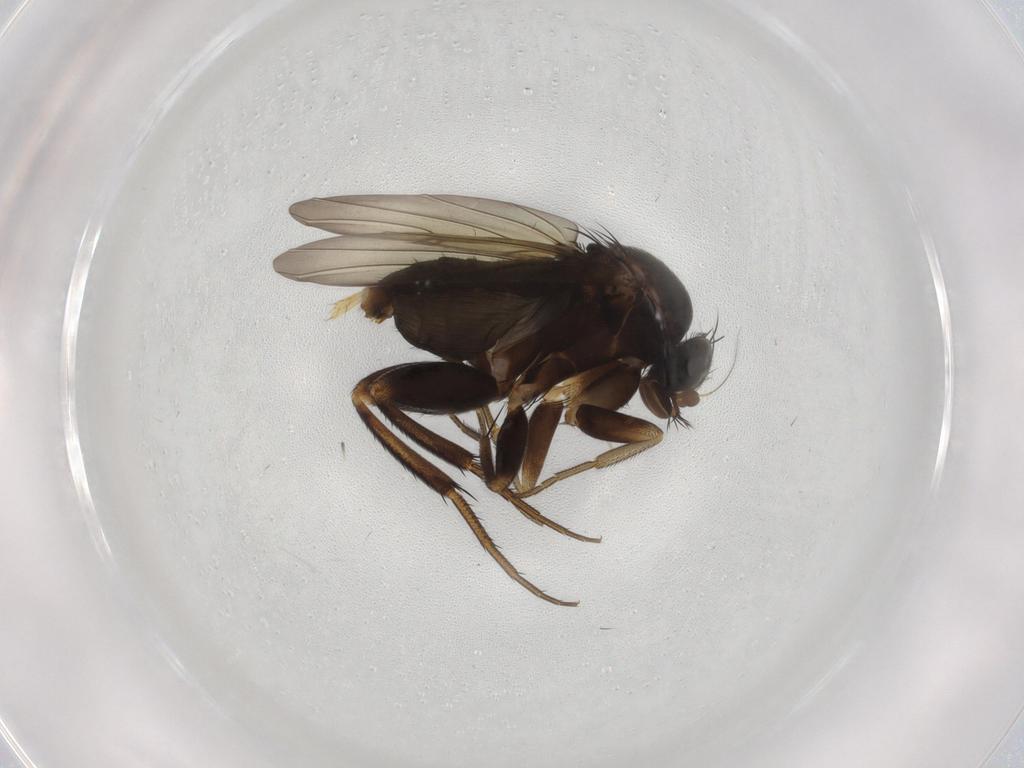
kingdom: Animalia
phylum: Arthropoda
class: Insecta
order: Diptera
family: Phoridae
